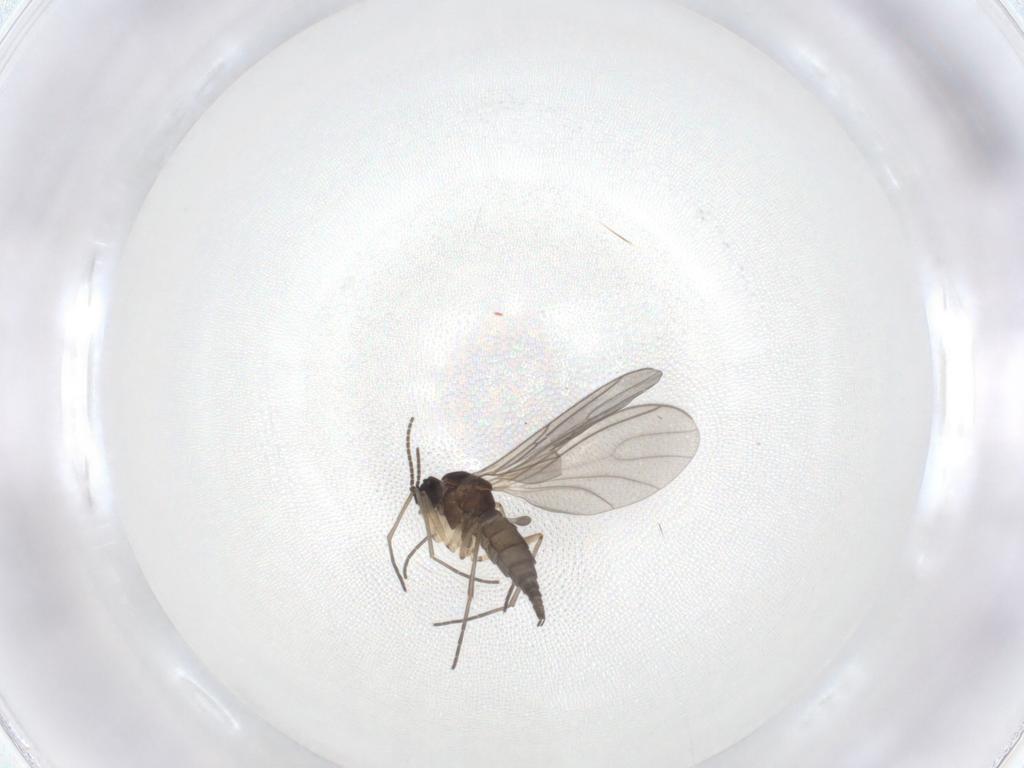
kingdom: Animalia
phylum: Arthropoda
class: Insecta
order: Diptera
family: Sciaridae
